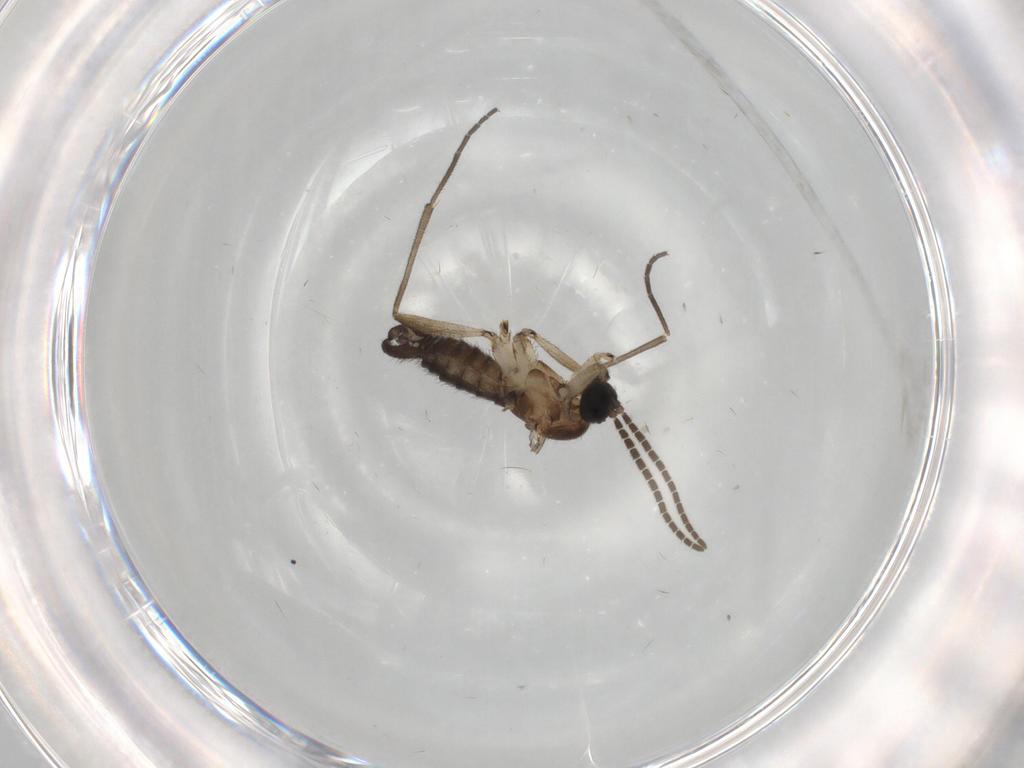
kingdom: Animalia
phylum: Arthropoda
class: Insecta
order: Diptera
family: Sciaridae
